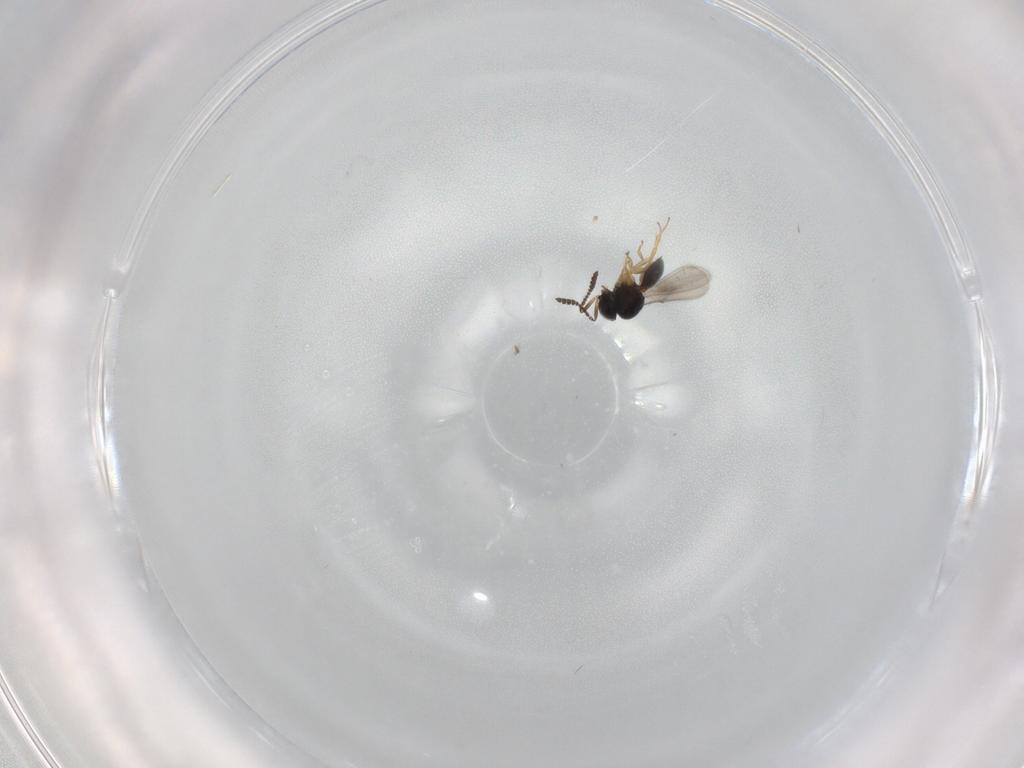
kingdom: Animalia
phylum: Arthropoda
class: Insecta
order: Hymenoptera
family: Scelionidae
